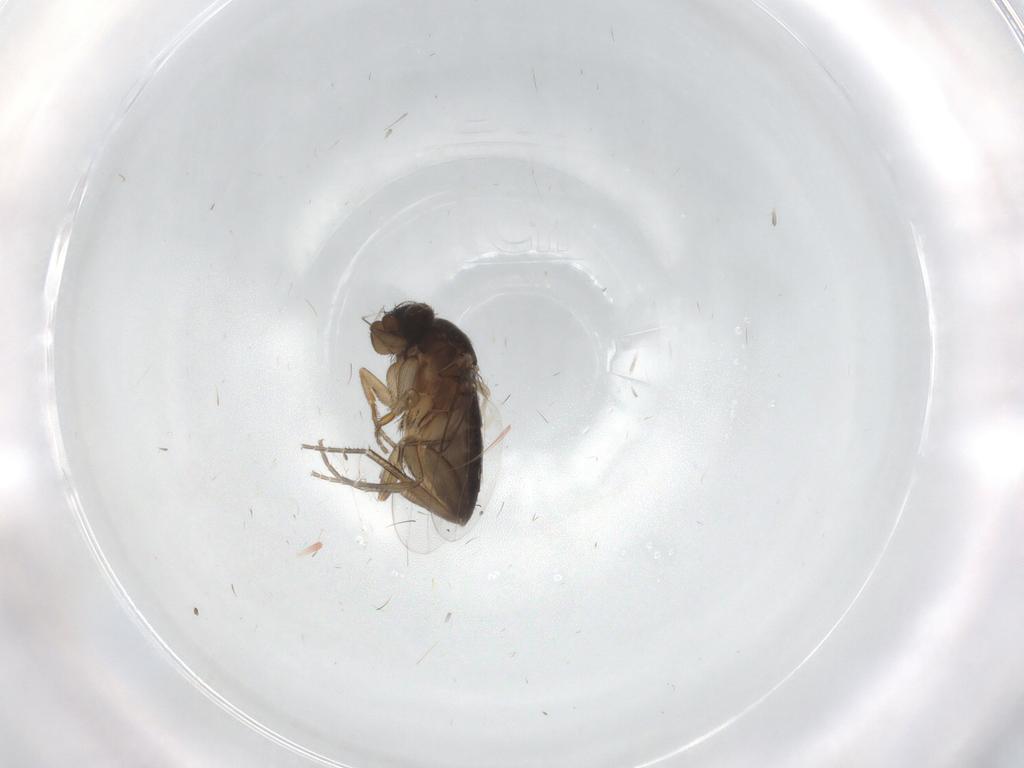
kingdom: Animalia
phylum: Arthropoda
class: Insecta
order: Diptera
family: Phoridae
